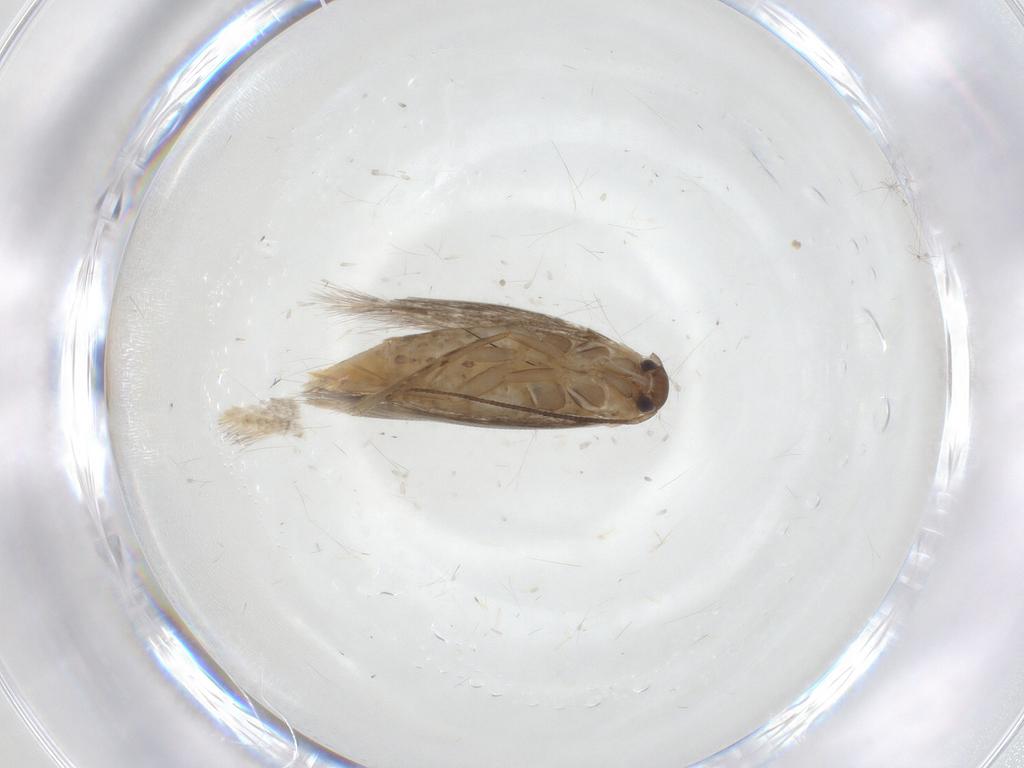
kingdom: Animalia
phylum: Arthropoda
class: Insecta
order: Lepidoptera
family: Elachistidae
